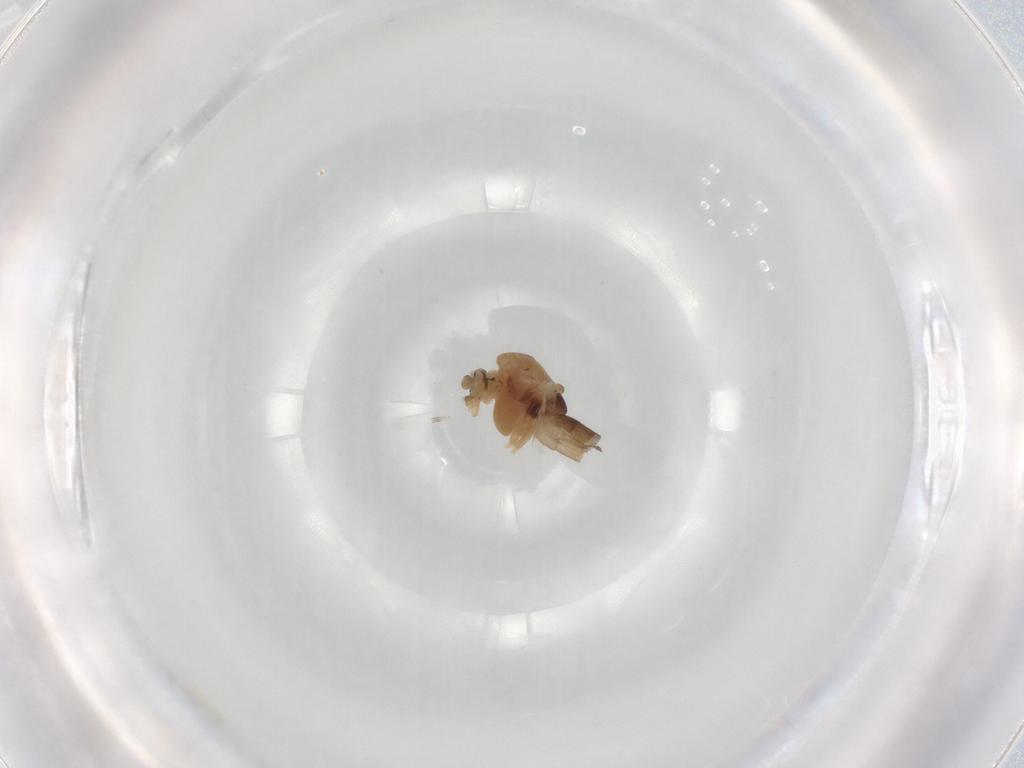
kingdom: Animalia
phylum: Arthropoda
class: Insecta
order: Diptera
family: Chironomidae
